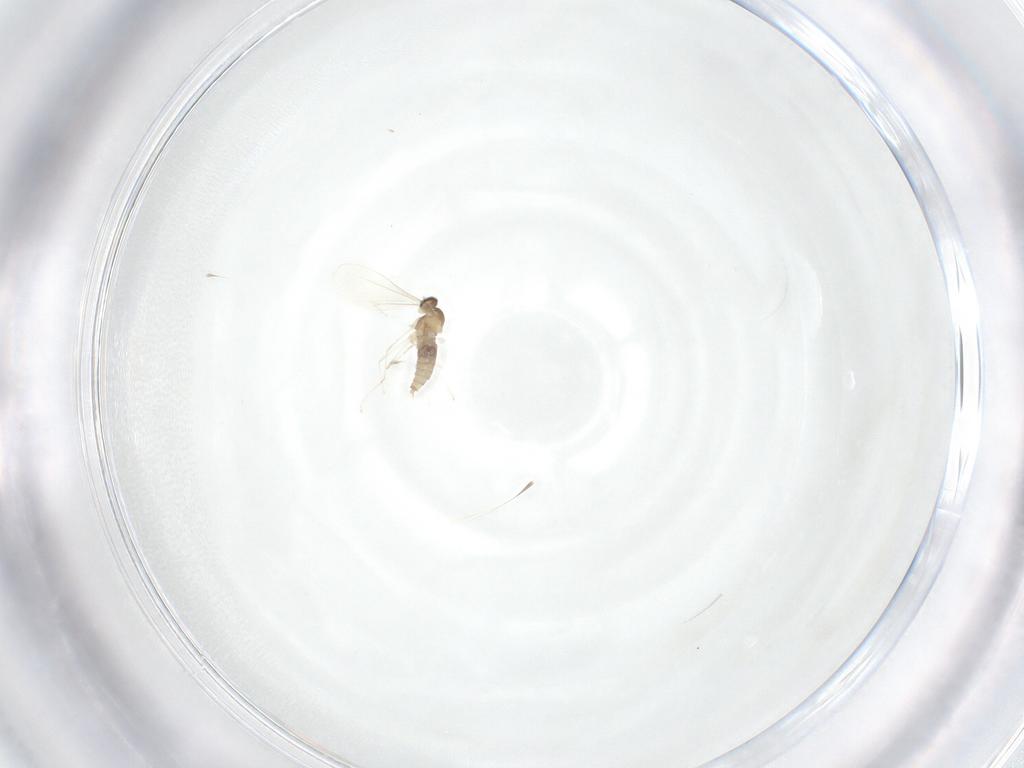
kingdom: Animalia
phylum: Arthropoda
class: Insecta
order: Diptera
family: Cecidomyiidae
